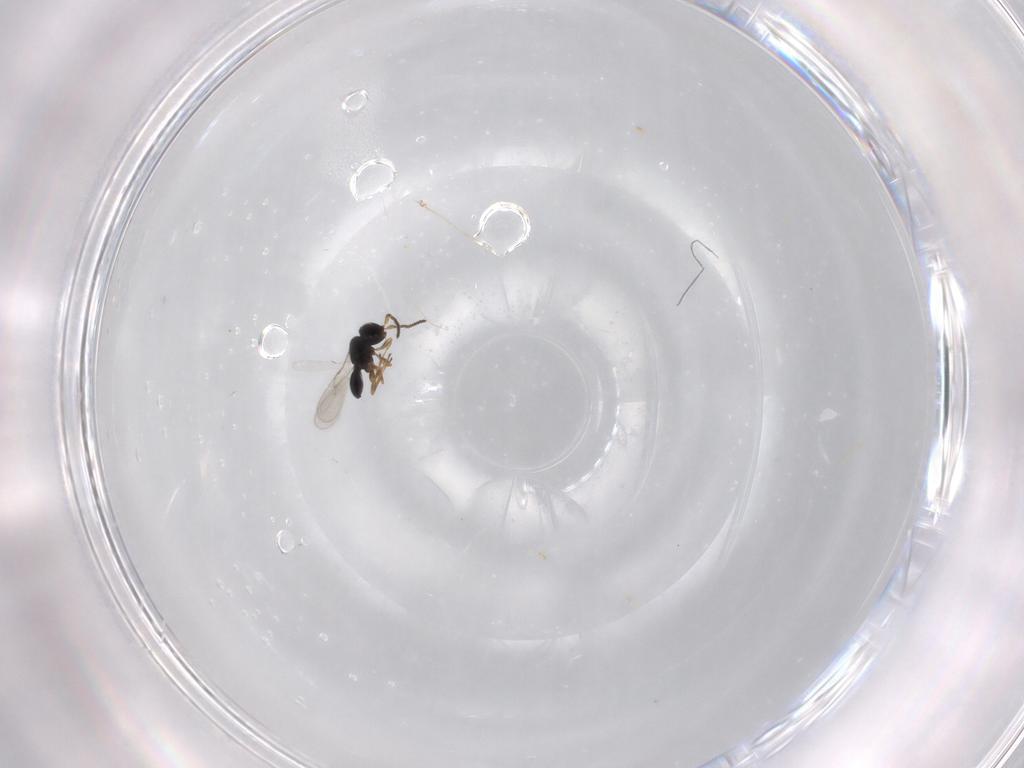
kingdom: Animalia
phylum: Arthropoda
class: Insecta
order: Hymenoptera
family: Scelionidae
